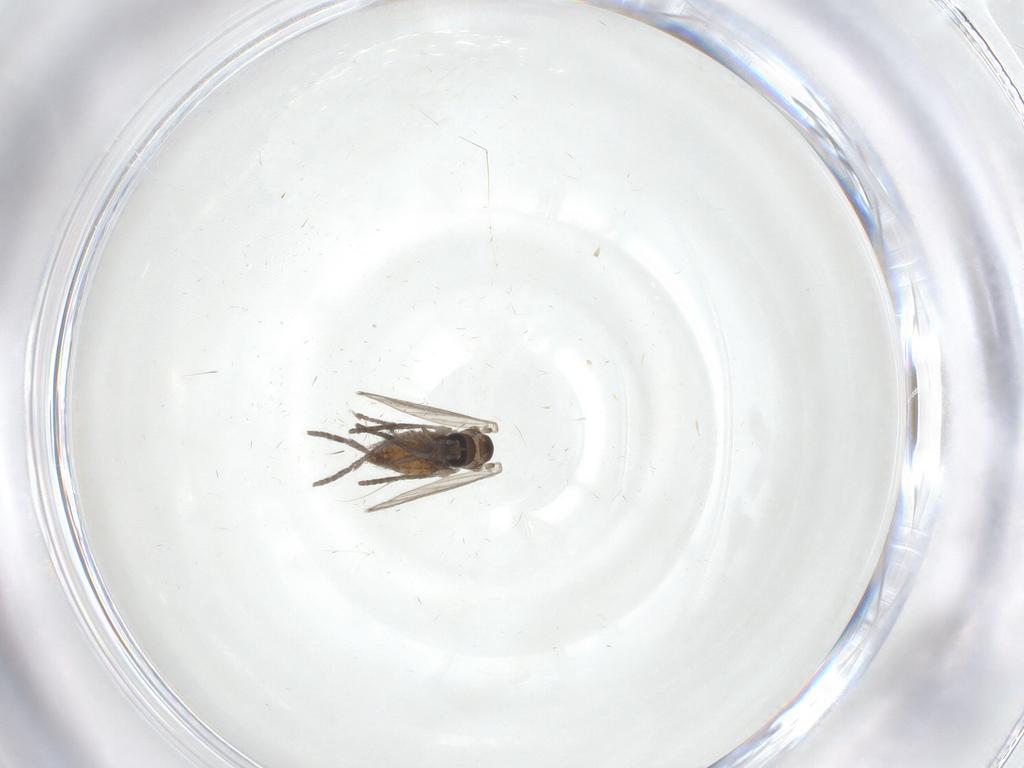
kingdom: Animalia
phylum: Arthropoda
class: Insecta
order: Diptera
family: Psychodidae
